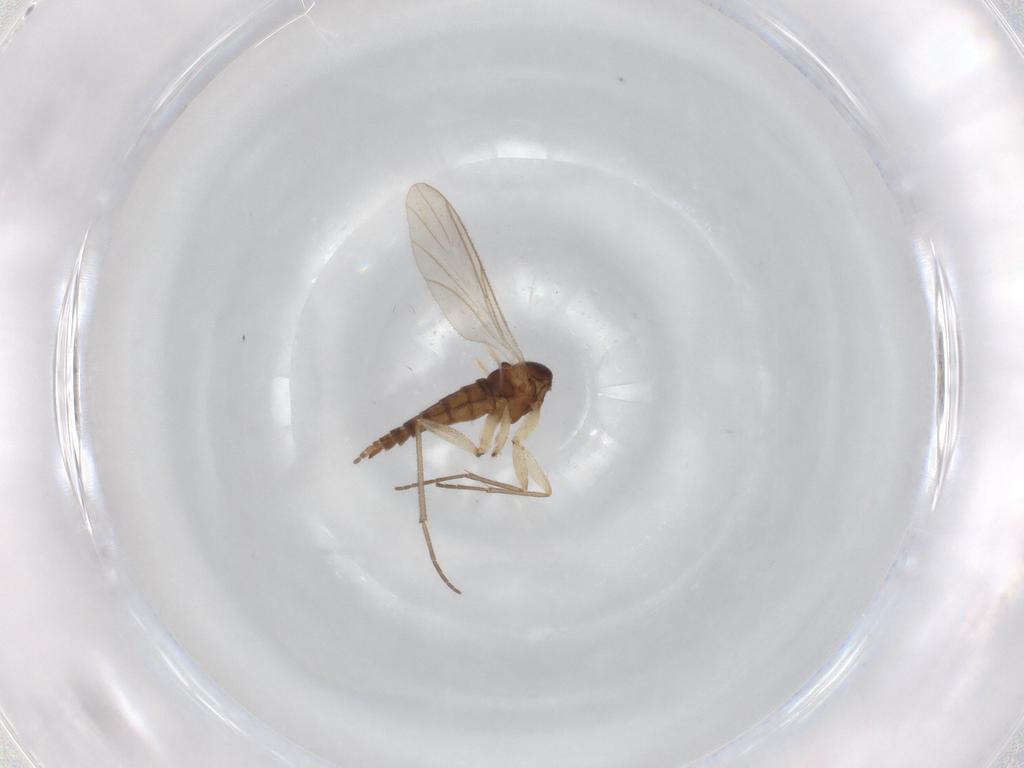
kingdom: Animalia
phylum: Arthropoda
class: Insecta
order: Diptera
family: Sciaridae
